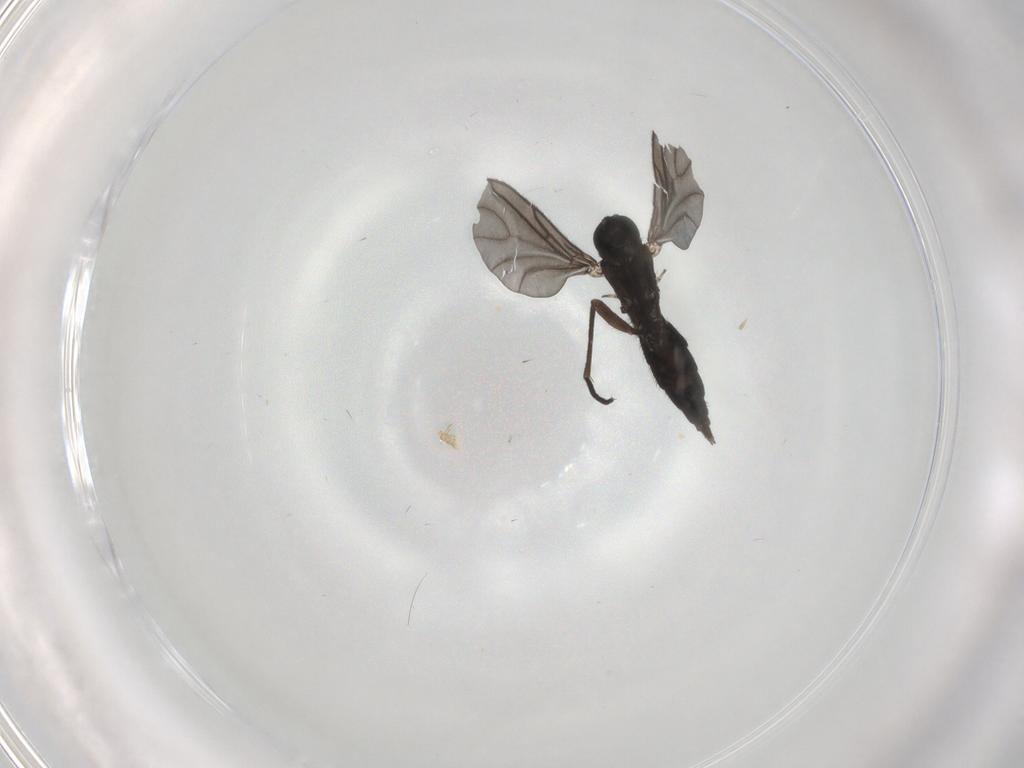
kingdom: Animalia
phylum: Arthropoda
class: Insecta
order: Diptera
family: Sciaridae
